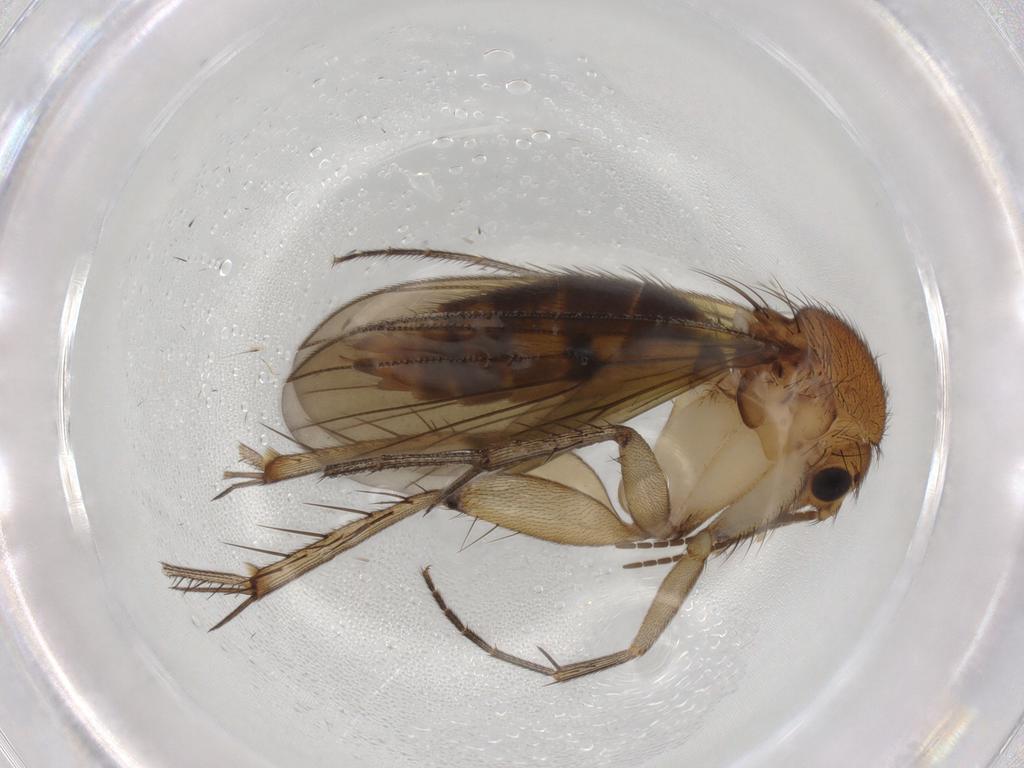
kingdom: Animalia
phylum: Arthropoda
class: Insecta
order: Diptera
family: Mycetophilidae
